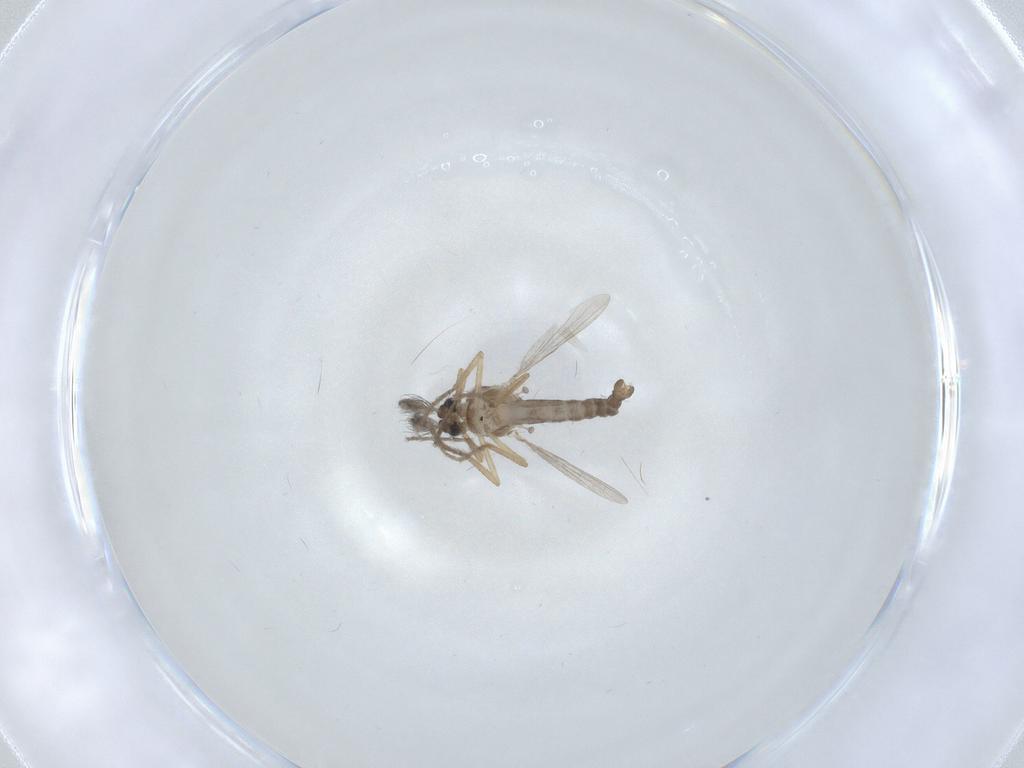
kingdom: Animalia
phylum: Arthropoda
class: Insecta
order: Diptera
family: Ceratopogonidae
